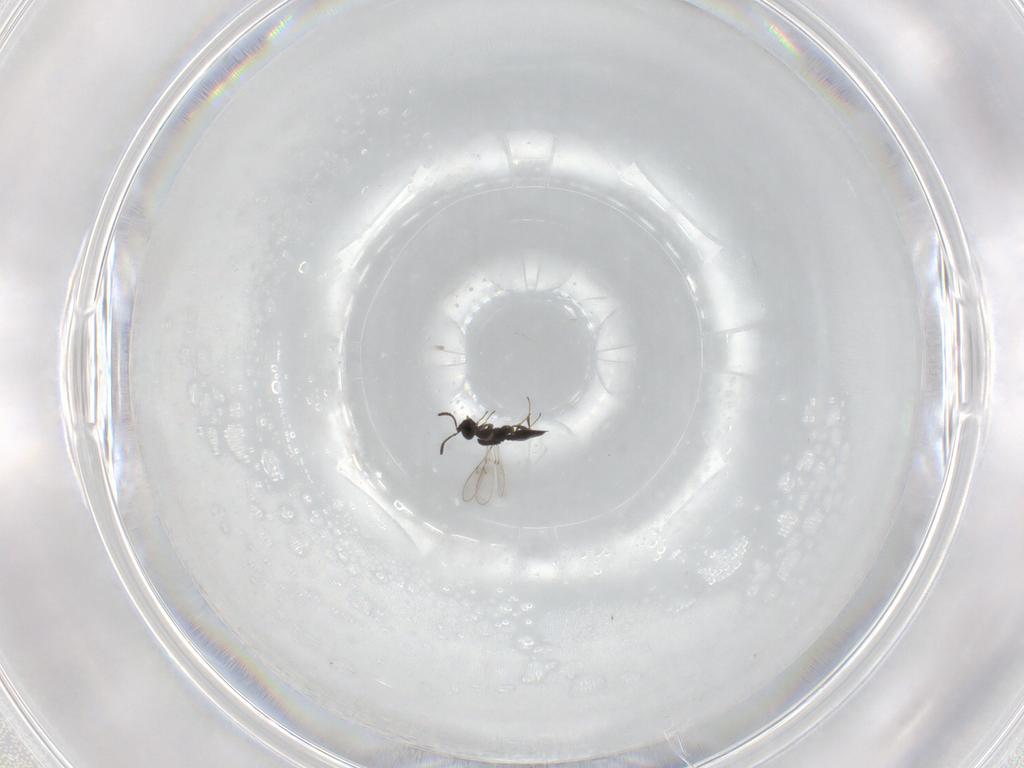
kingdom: Animalia
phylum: Arthropoda
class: Insecta
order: Hymenoptera
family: Scelionidae
